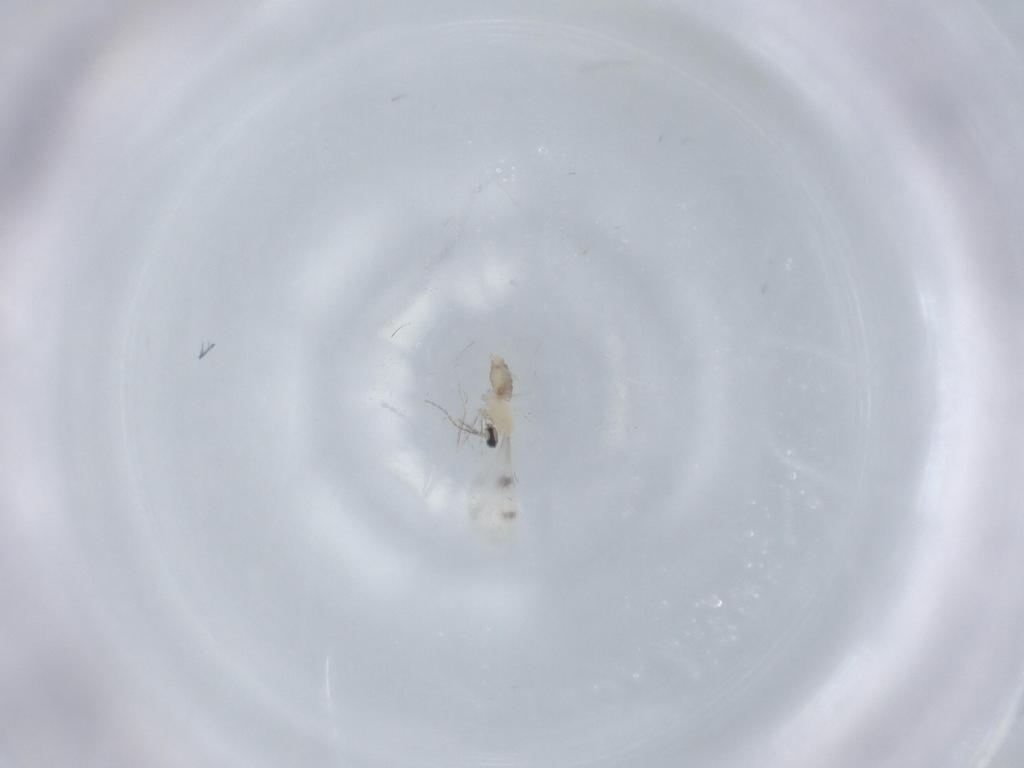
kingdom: Animalia
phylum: Arthropoda
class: Insecta
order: Diptera
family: Cecidomyiidae
